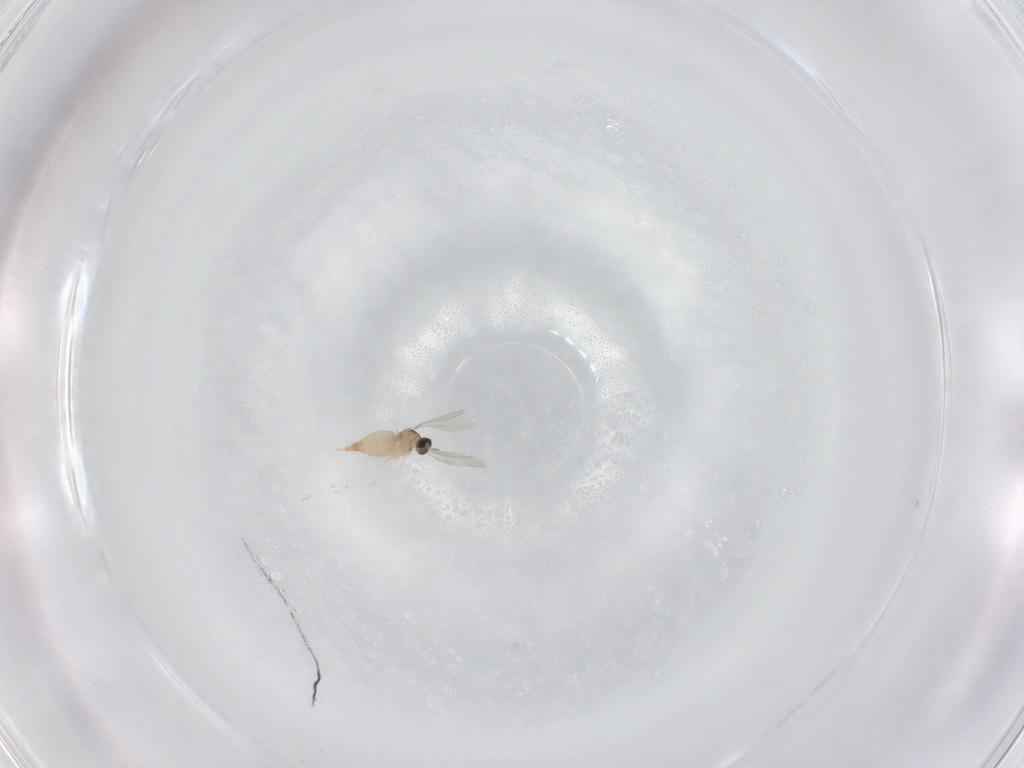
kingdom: Animalia
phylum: Arthropoda
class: Insecta
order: Diptera
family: Cecidomyiidae
